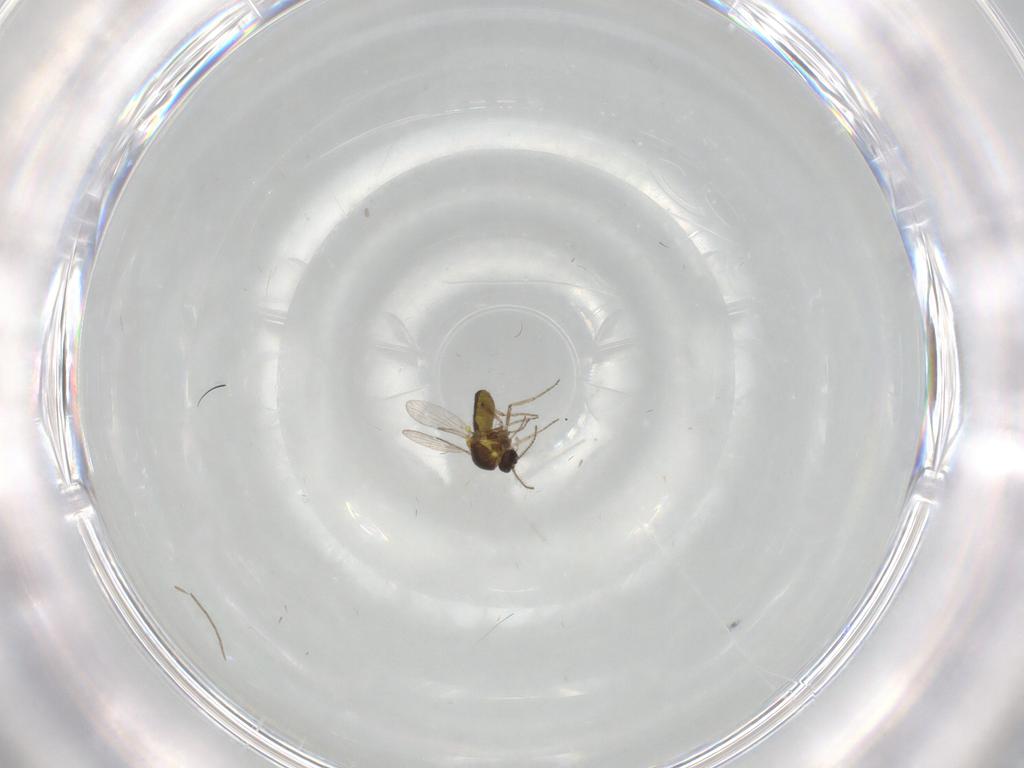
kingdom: Animalia
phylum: Arthropoda
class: Insecta
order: Diptera
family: Ceratopogonidae
